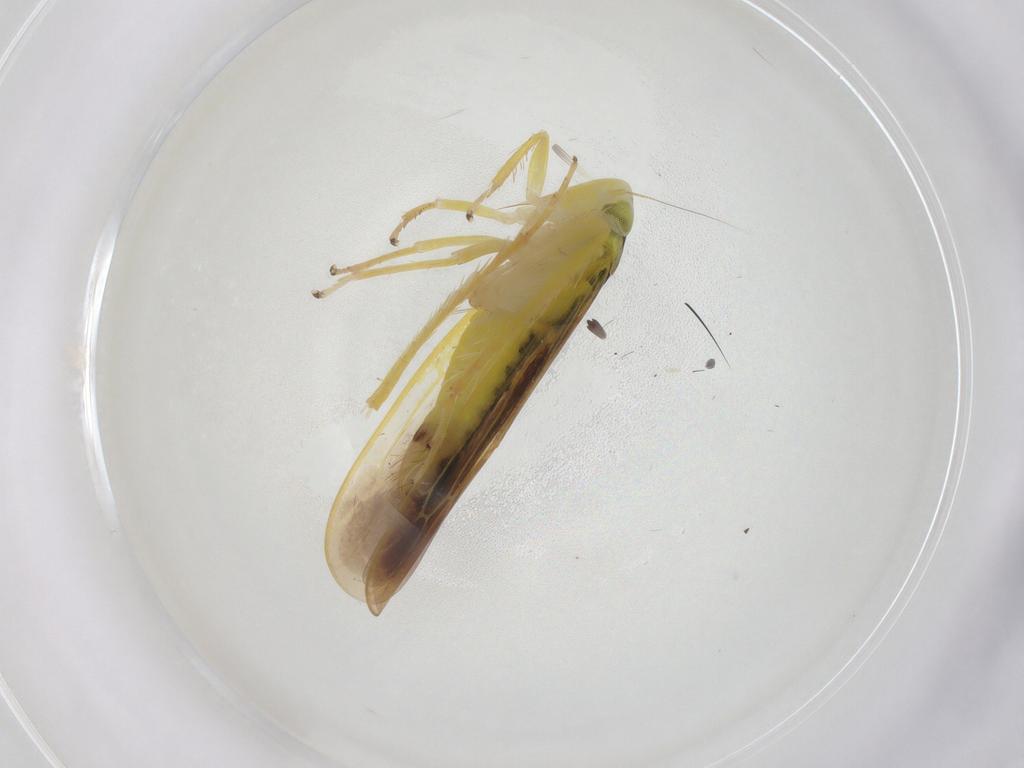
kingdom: Animalia
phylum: Arthropoda
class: Insecta
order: Hemiptera
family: Cicadellidae
